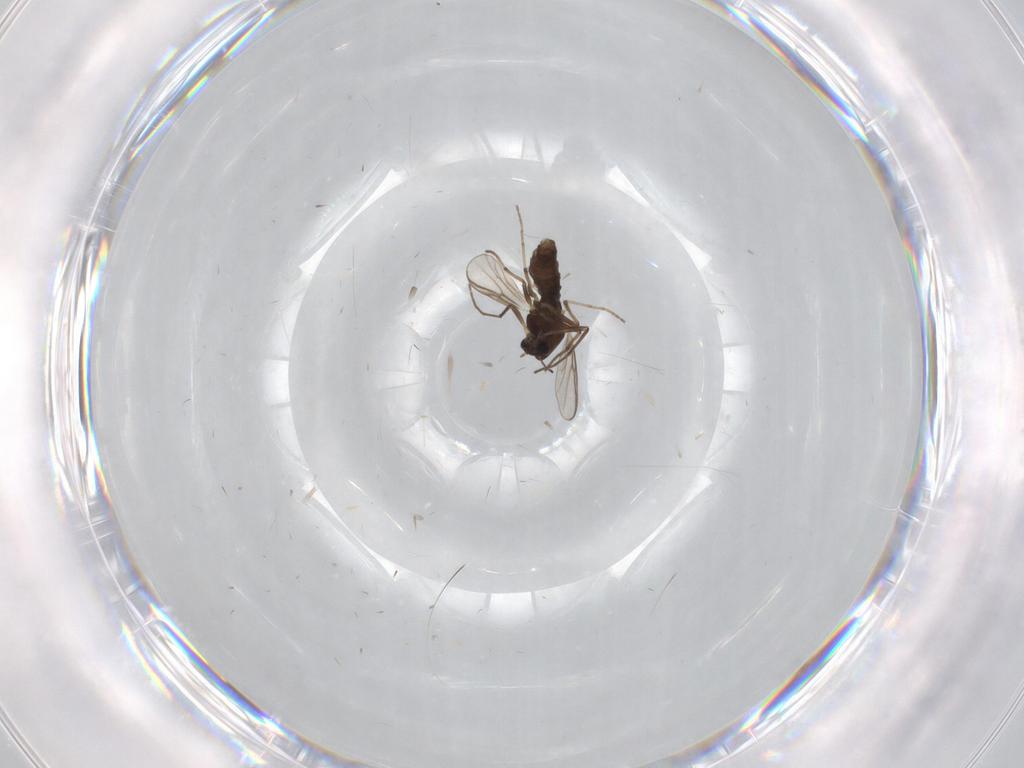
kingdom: Animalia
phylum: Arthropoda
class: Insecta
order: Diptera
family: Chironomidae
